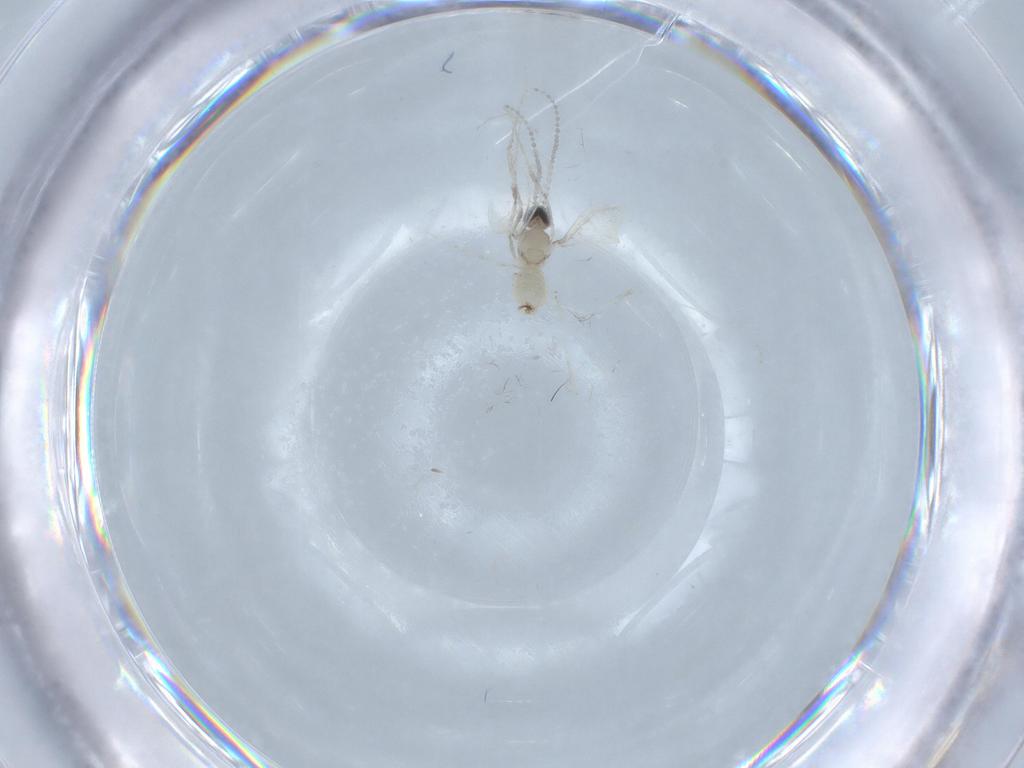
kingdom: Animalia
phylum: Arthropoda
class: Insecta
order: Diptera
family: Cecidomyiidae
